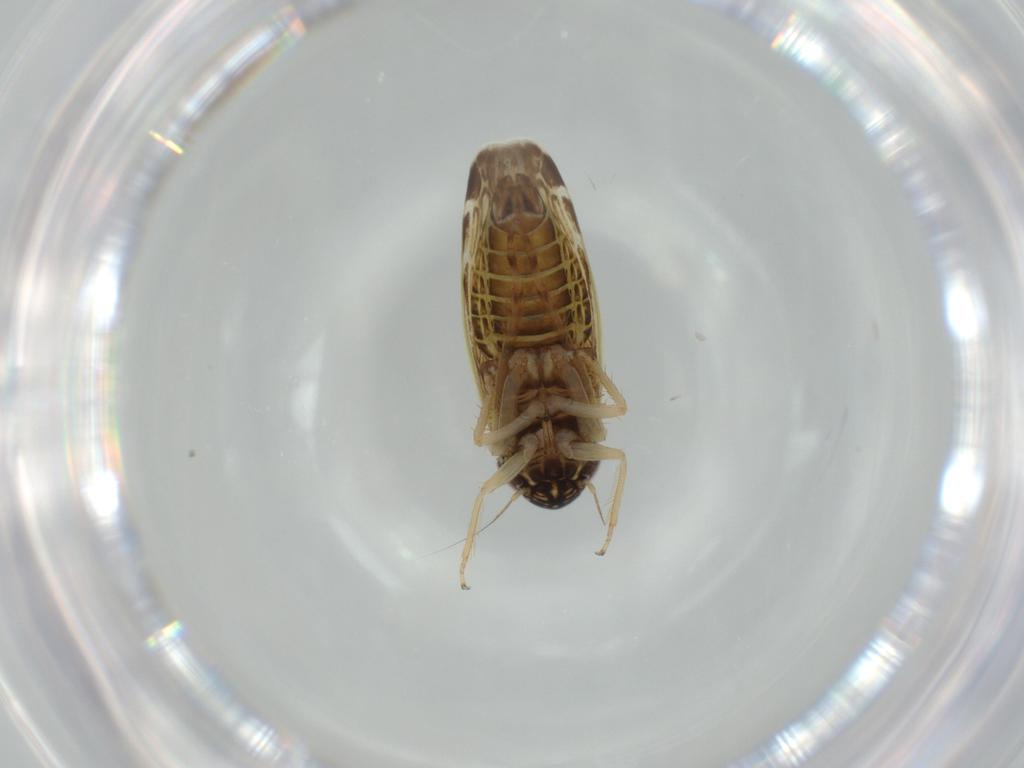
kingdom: Animalia
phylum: Arthropoda
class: Insecta
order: Hemiptera
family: Cicadellidae
